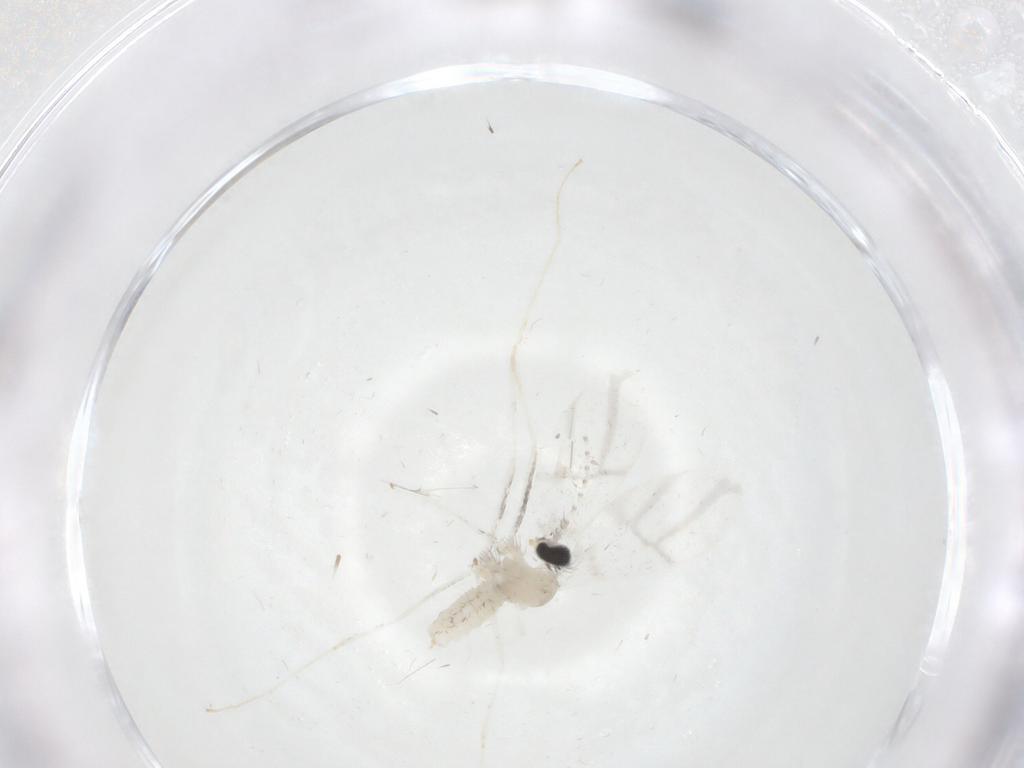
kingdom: Animalia
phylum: Arthropoda
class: Insecta
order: Diptera
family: Cecidomyiidae
